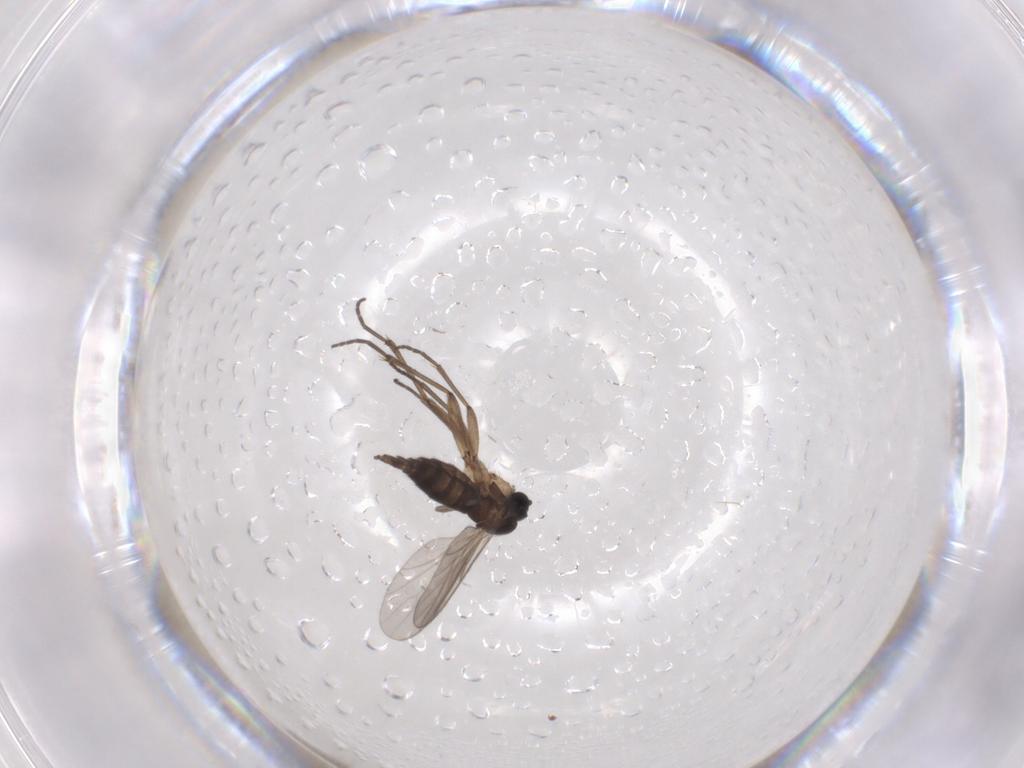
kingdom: Animalia
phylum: Arthropoda
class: Insecta
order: Diptera
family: Sciaridae
